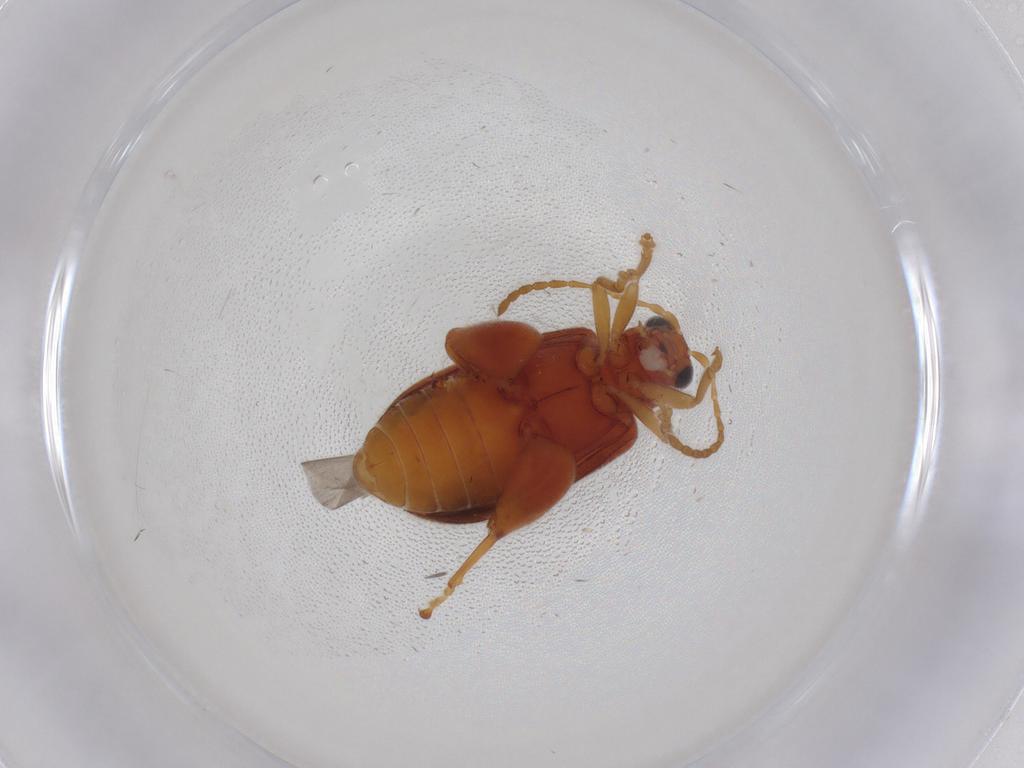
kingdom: Animalia
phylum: Arthropoda
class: Insecta
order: Coleoptera
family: Chrysomelidae
